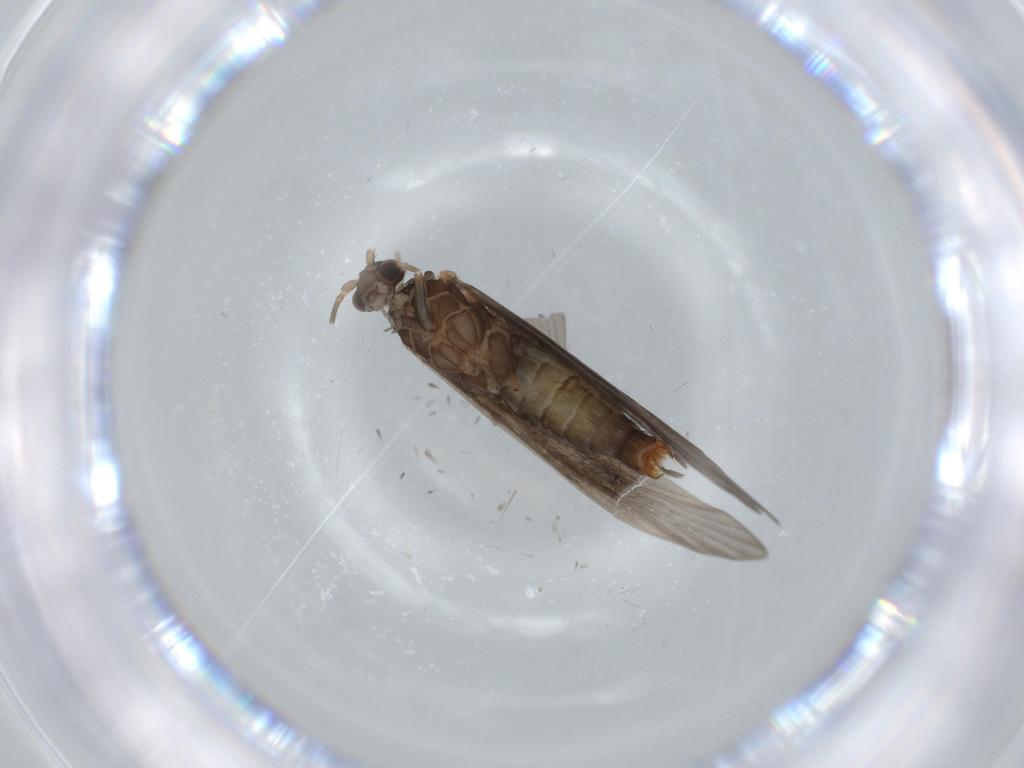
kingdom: Animalia
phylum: Arthropoda
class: Insecta
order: Trichoptera
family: Xiphocentronidae
